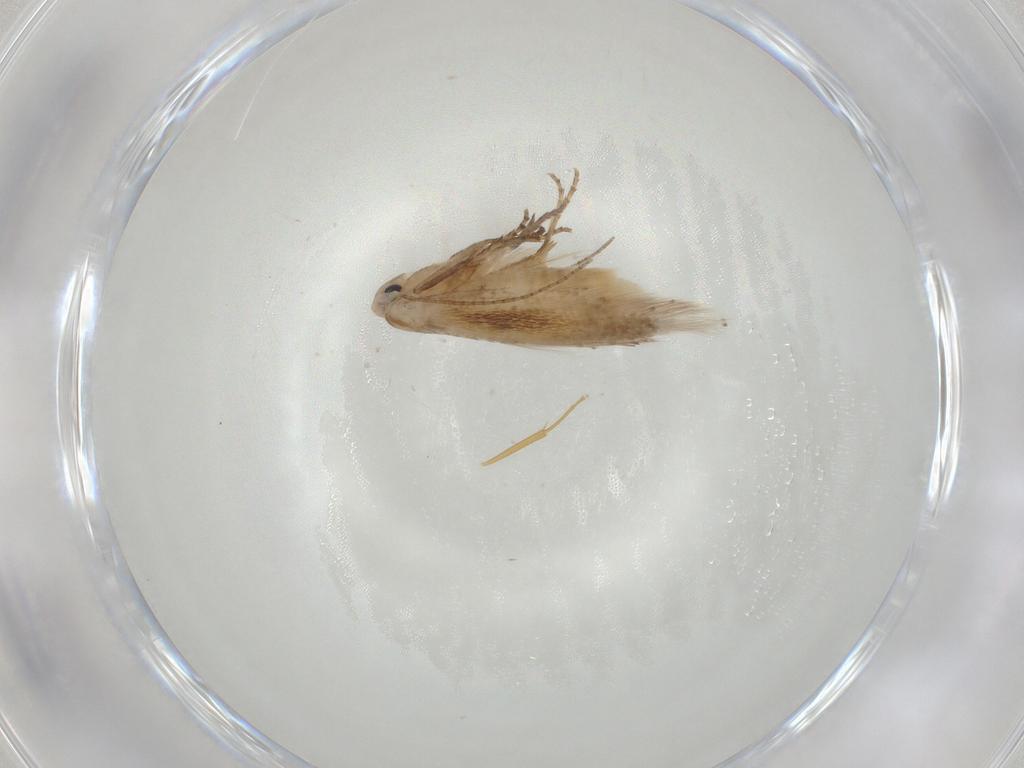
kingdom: Animalia
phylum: Arthropoda
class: Insecta
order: Lepidoptera
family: Bucculatricidae
